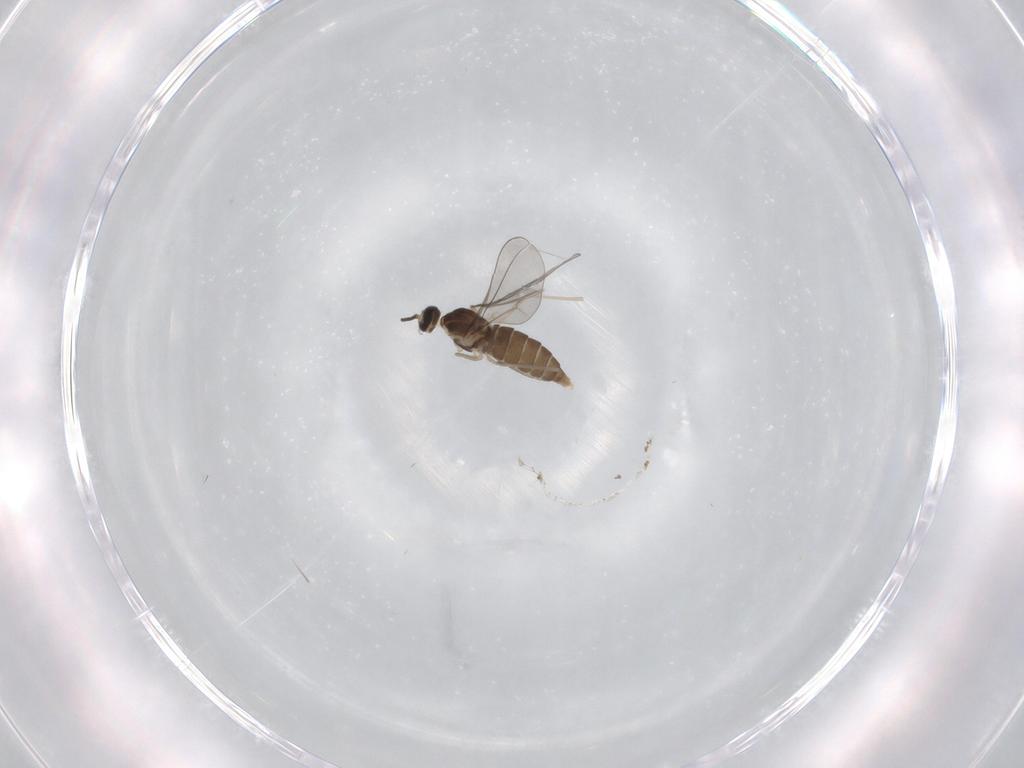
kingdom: Animalia
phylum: Arthropoda
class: Insecta
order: Diptera
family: Cecidomyiidae
